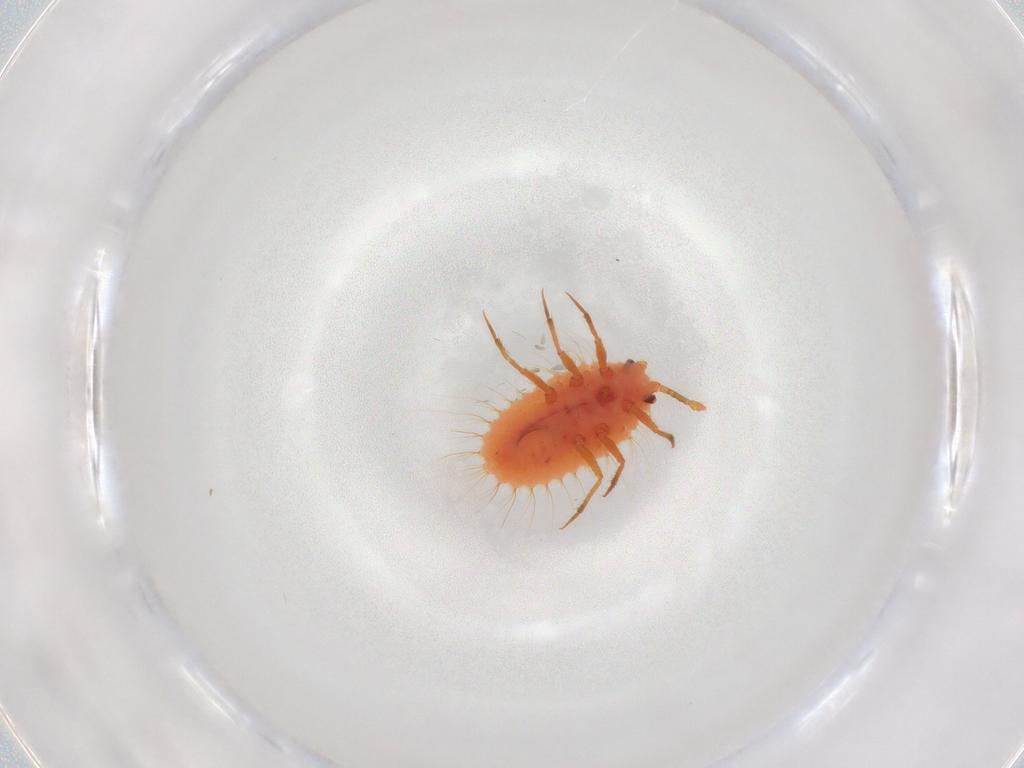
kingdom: Animalia
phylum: Arthropoda
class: Insecta
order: Hemiptera
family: Coccoidea_incertae_sedis
